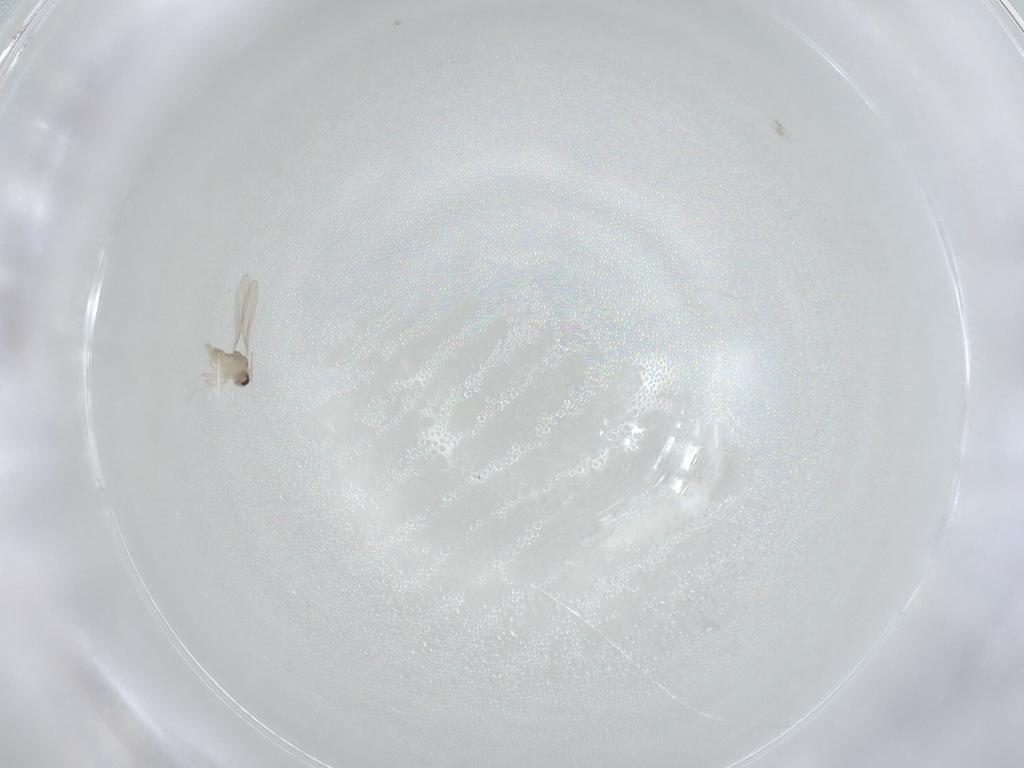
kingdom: Animalia
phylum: Arthropoda
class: Insecta
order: Diptera
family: Cecidomyiidae
